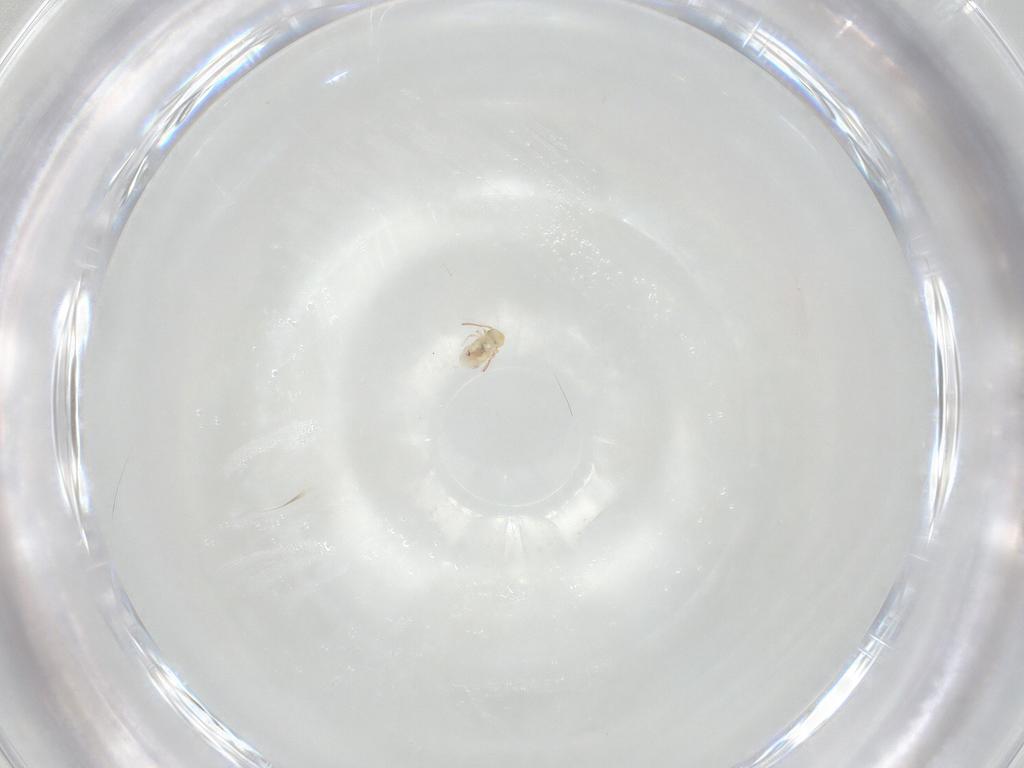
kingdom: Animalia
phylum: Arthropoda
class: Collembola
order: Symphypleona
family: Bourletiellidae
